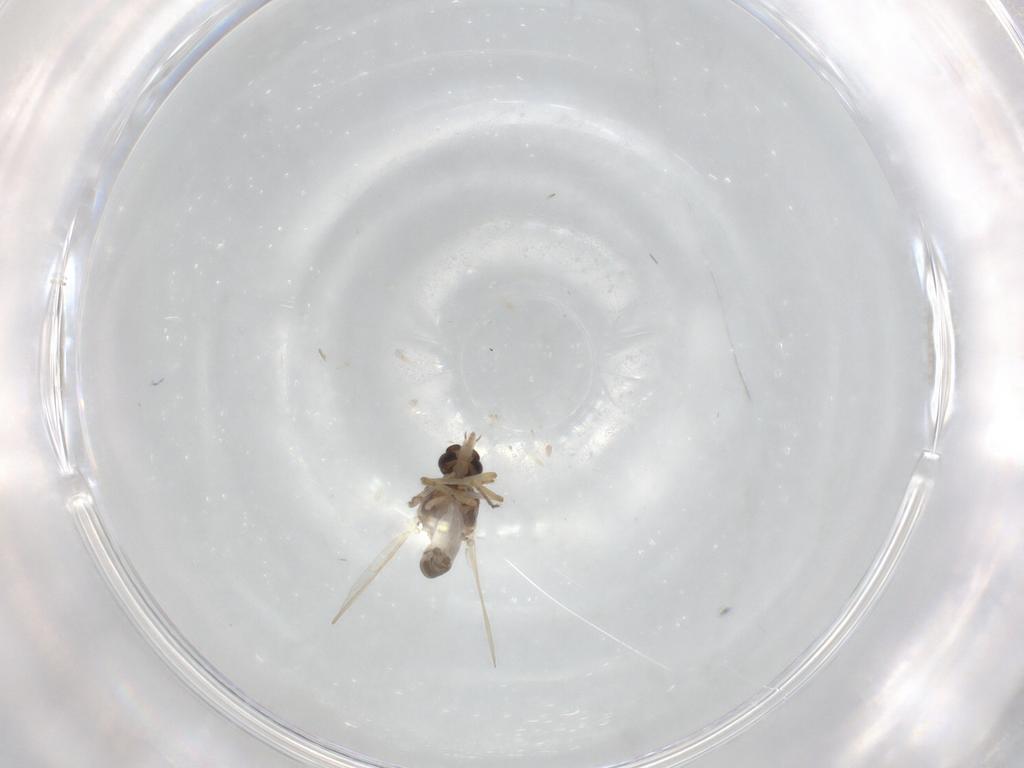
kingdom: Animalia
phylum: Arthropoda
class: Insecta
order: Diptera
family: Ceratopogonidae
